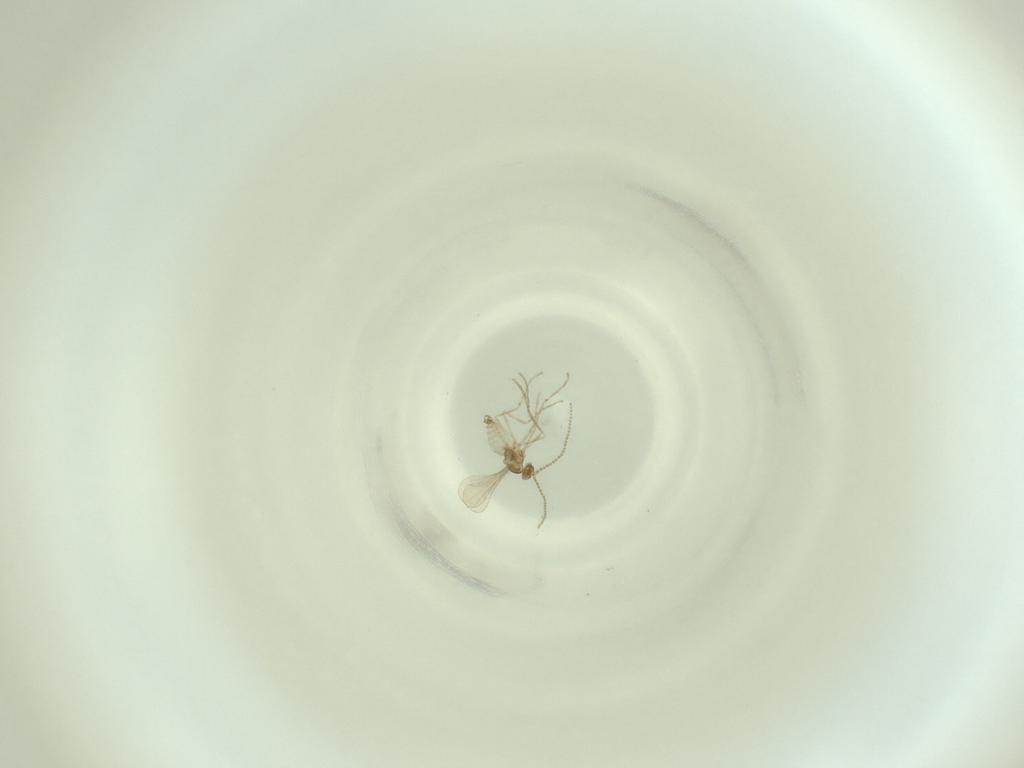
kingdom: Animalia
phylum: Arthropoda
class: Insecta
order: Diptera
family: Cecidomyiidae
